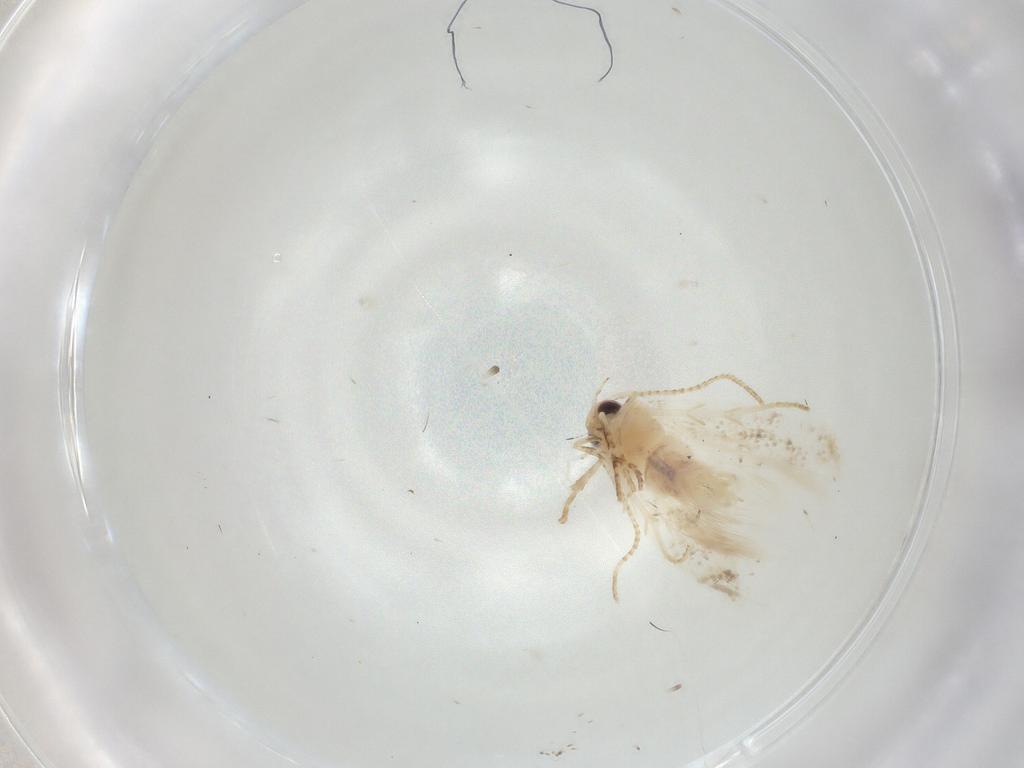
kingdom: Animalia
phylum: Arthropoda
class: Insecta
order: Lepidoptera
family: Gelechiidae
